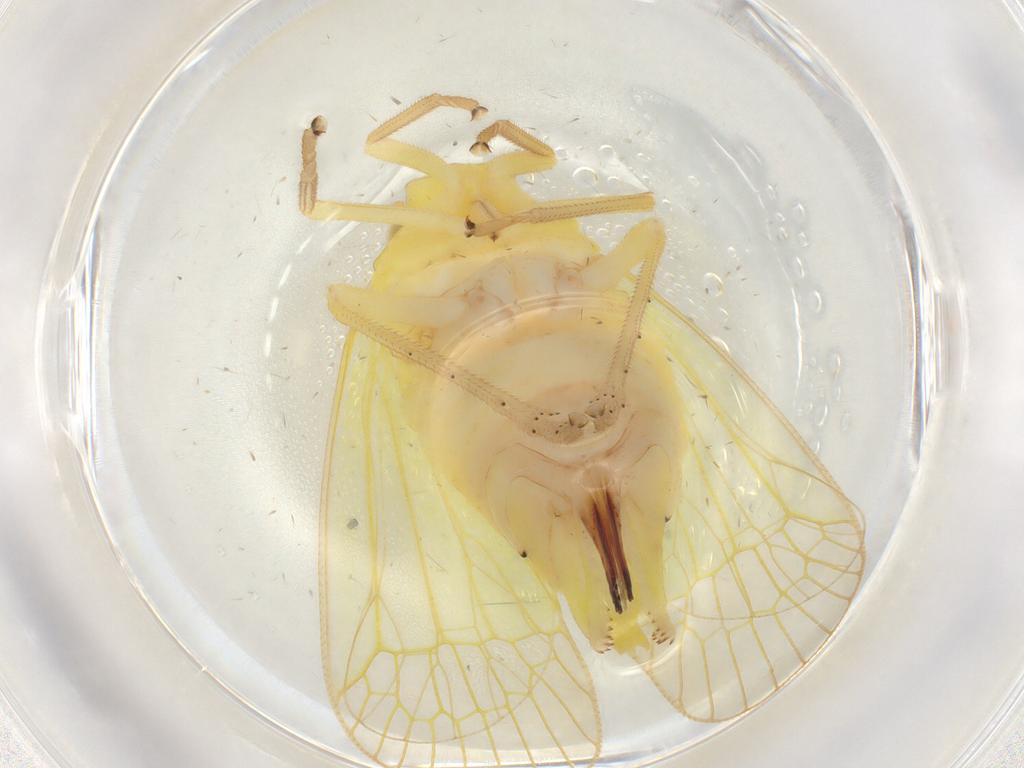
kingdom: Animalia
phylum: Arthropoda
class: Insecta
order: Hemiptera
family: Tropiduchidae
